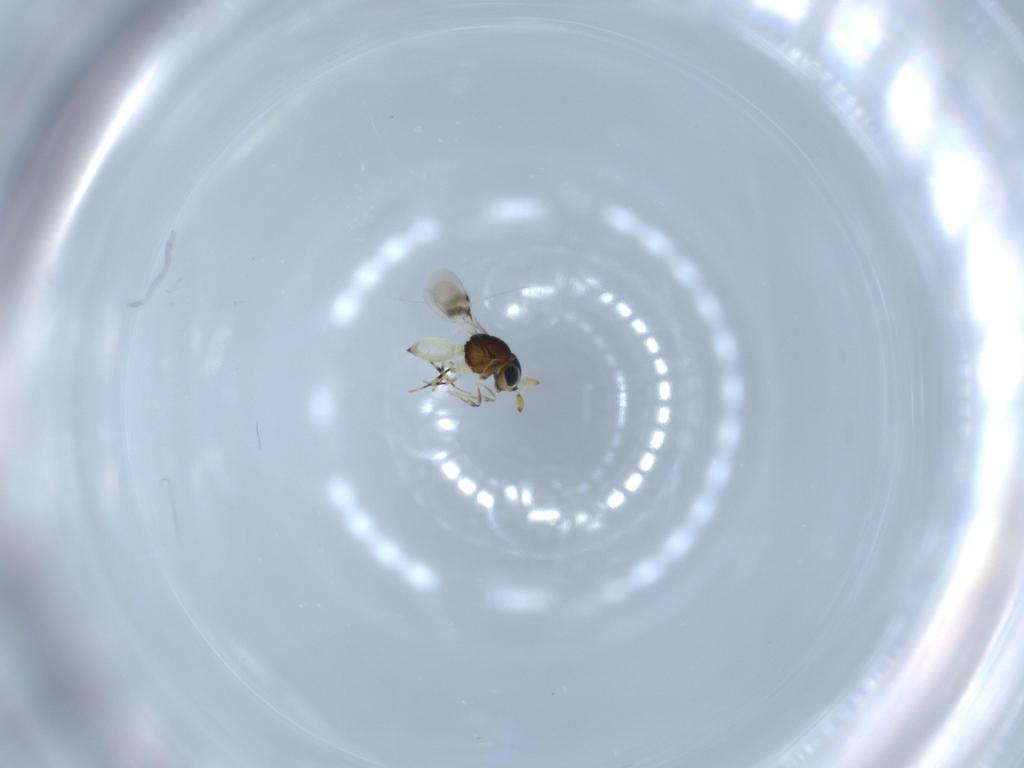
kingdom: Animalia
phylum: Arthropoda
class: Insecta
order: Hymenoptera
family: Scelionidae
